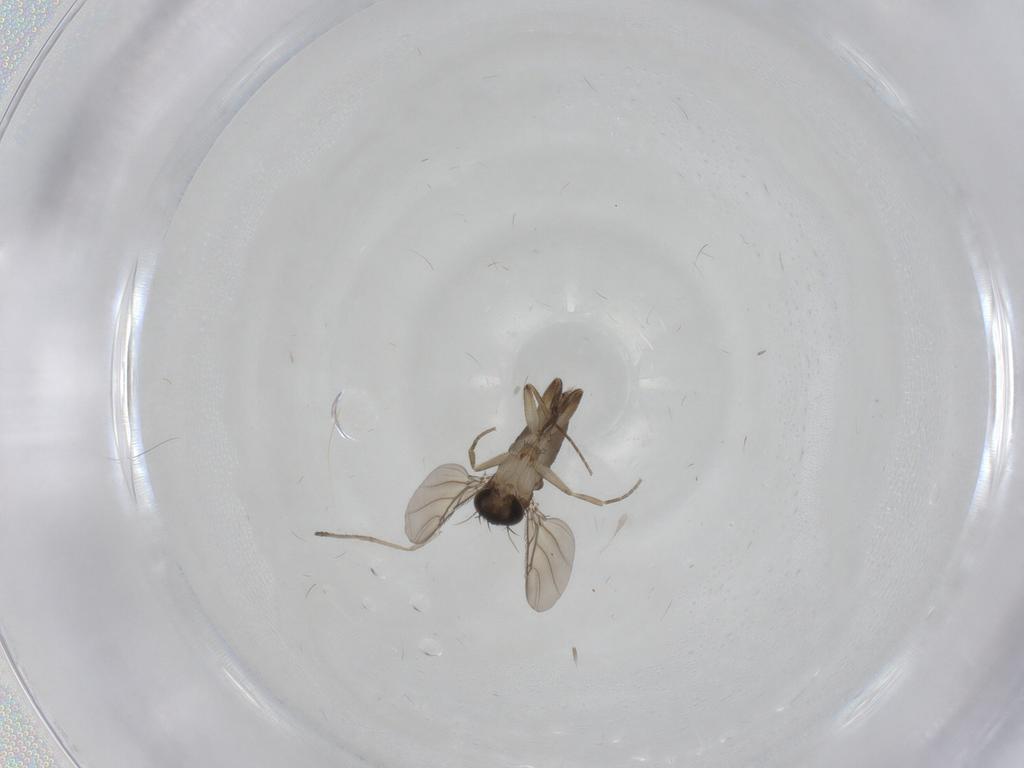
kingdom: Animalia
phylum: Arthropoda
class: Insecta
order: Diptera
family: Phoridae
